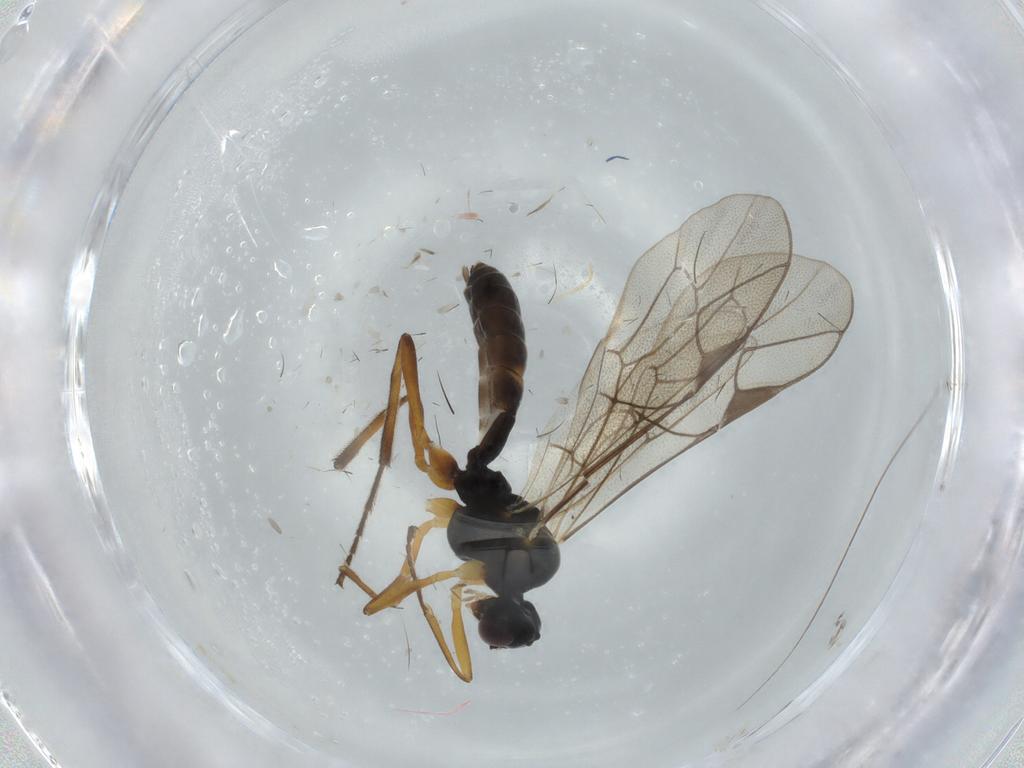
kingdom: Animalia
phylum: Arthropoda
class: Insecta
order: Hymenoptera
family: Ichneumonidae
